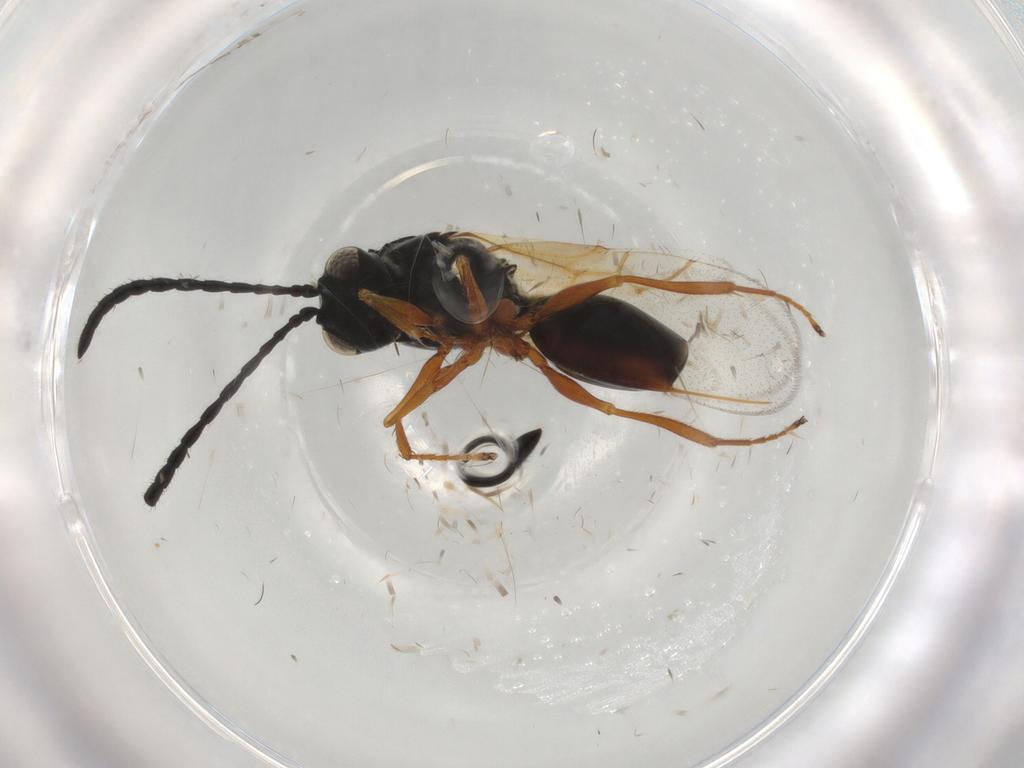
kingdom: Animalia
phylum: Arthropoda
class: Insecta
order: Hymenoptera
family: Figitidae
